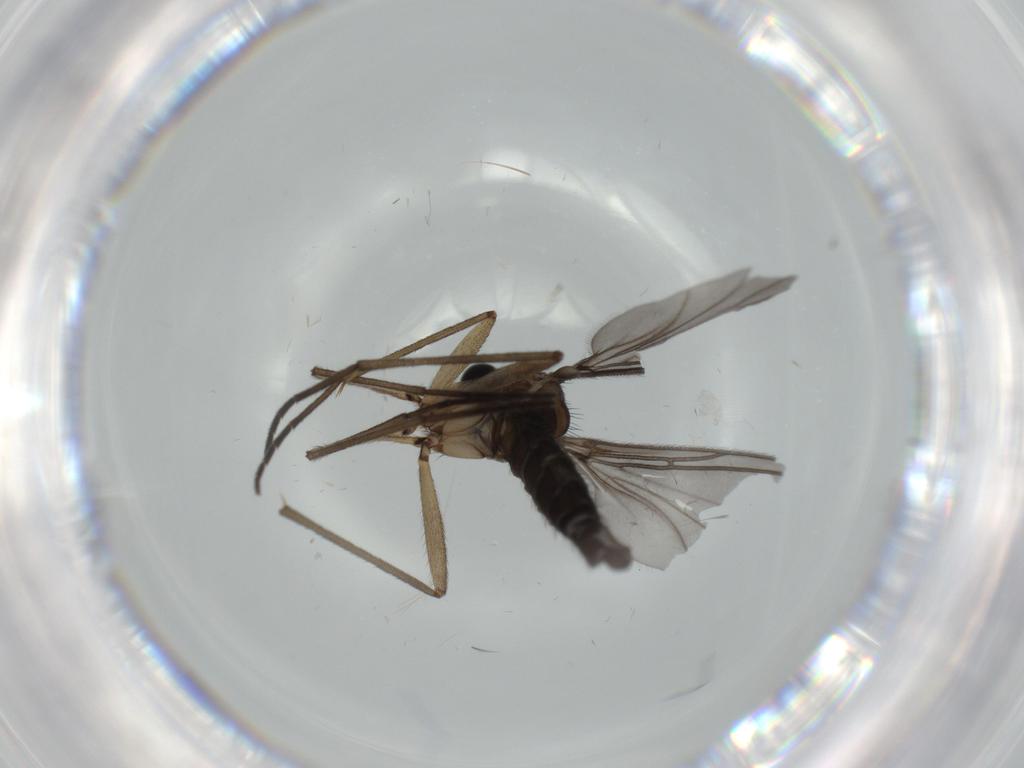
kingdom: Animalia
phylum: Arthropoda
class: Insecta
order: Diptera
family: Sciaridae
